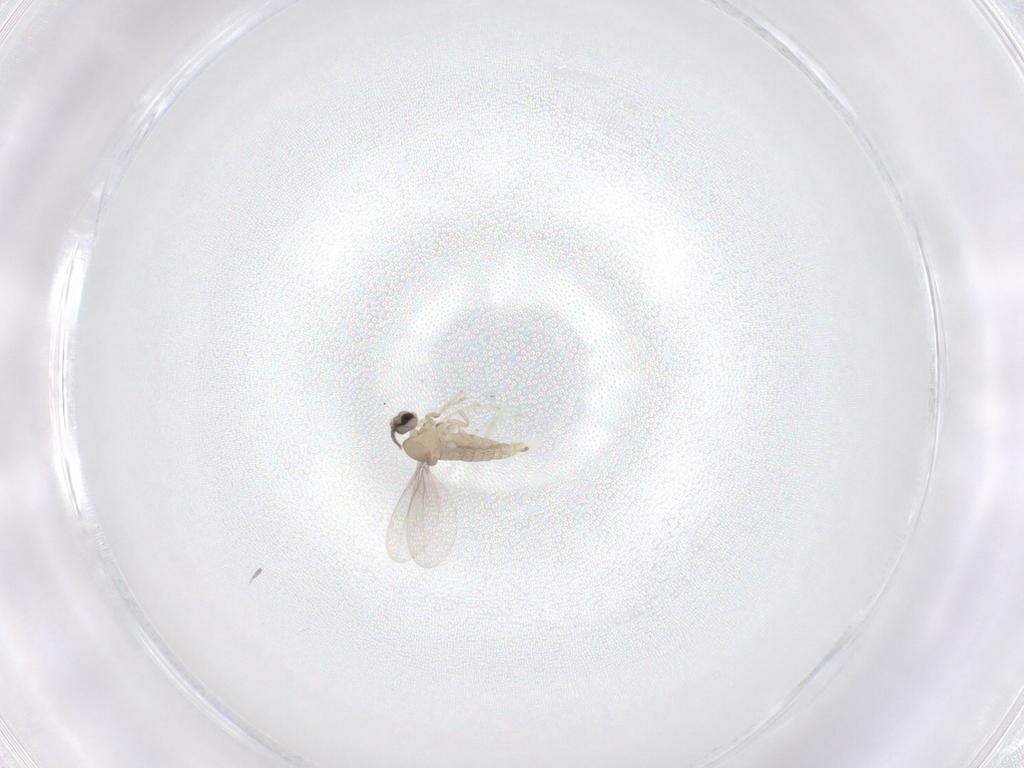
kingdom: Animalia
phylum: Arthropoda
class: Insecta
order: Diptera
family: Cecidomyiidae
